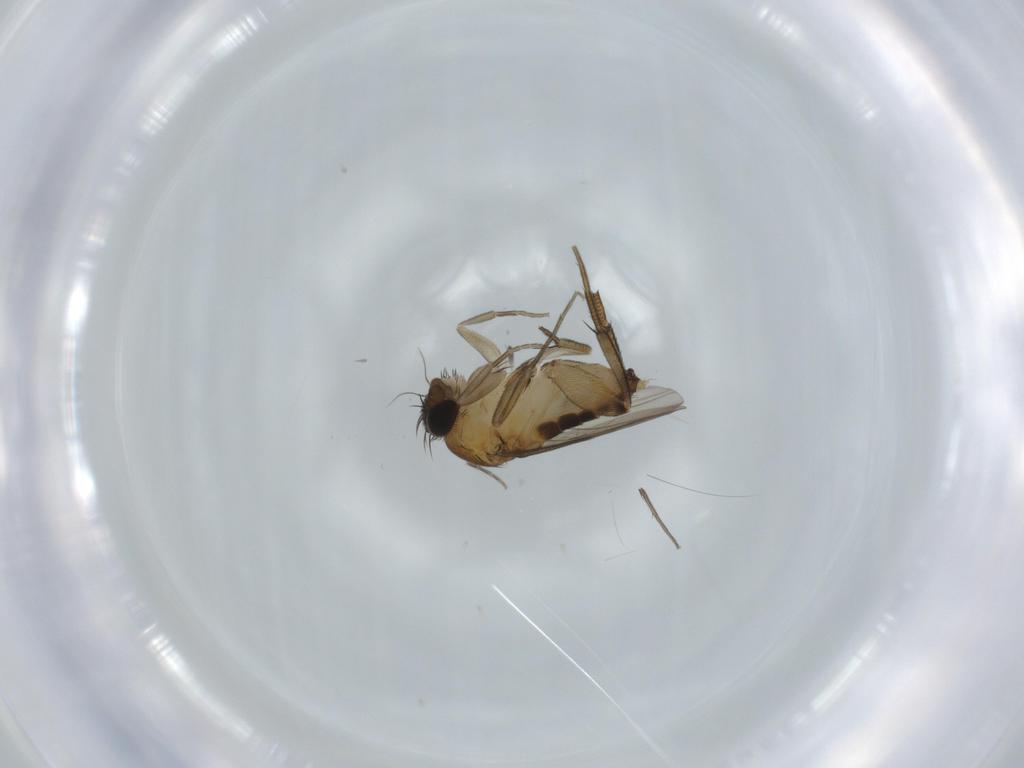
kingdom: Animalia
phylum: Arthropoda
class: Insecta
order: Diptera
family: Phoridae
